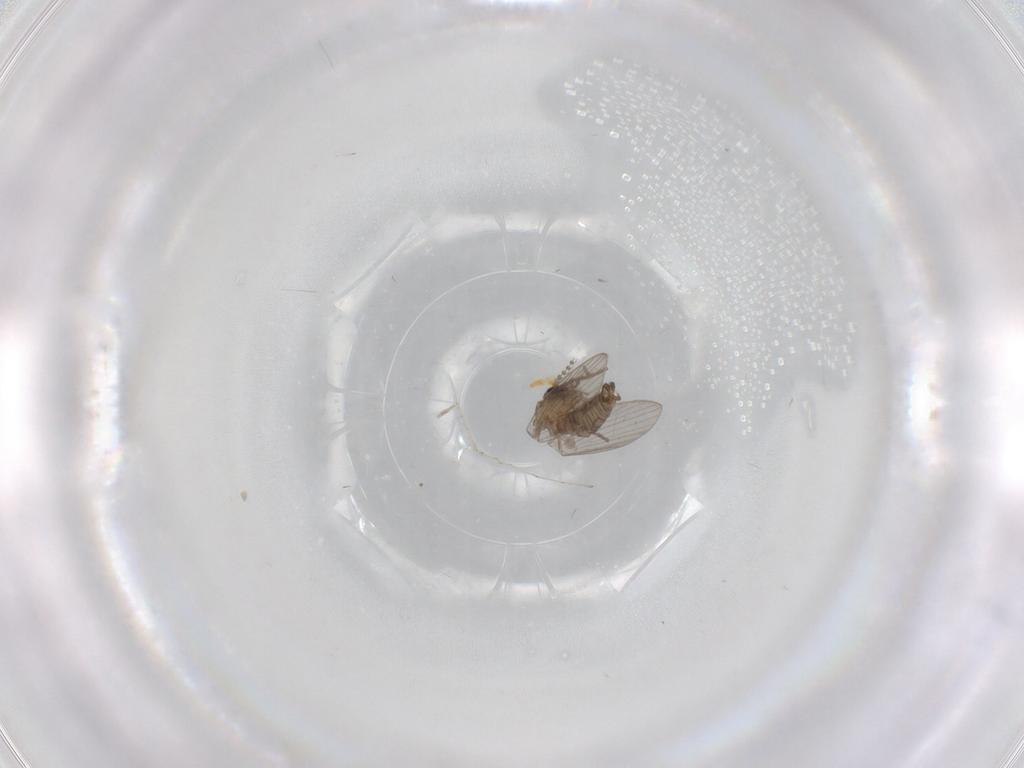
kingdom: Animalia
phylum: Arthropoda
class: Insecta
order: Diptera
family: Psychodidae
